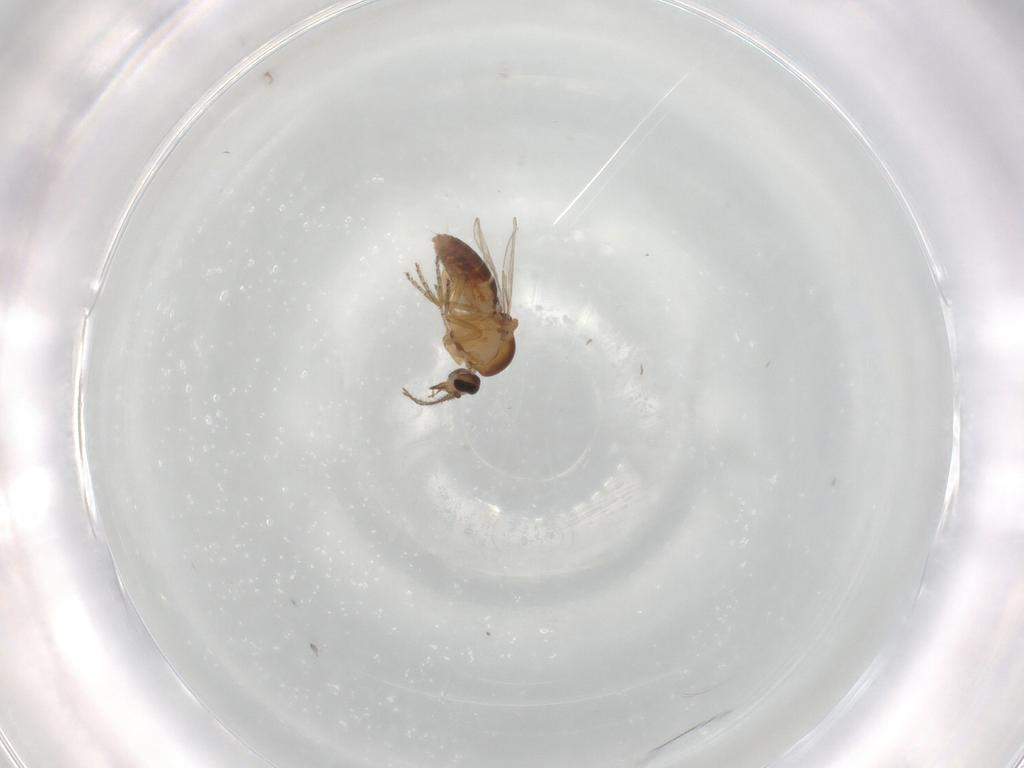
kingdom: Animalia
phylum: Arthropoda
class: Insecta
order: Diptera
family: Ceratopogonidae
